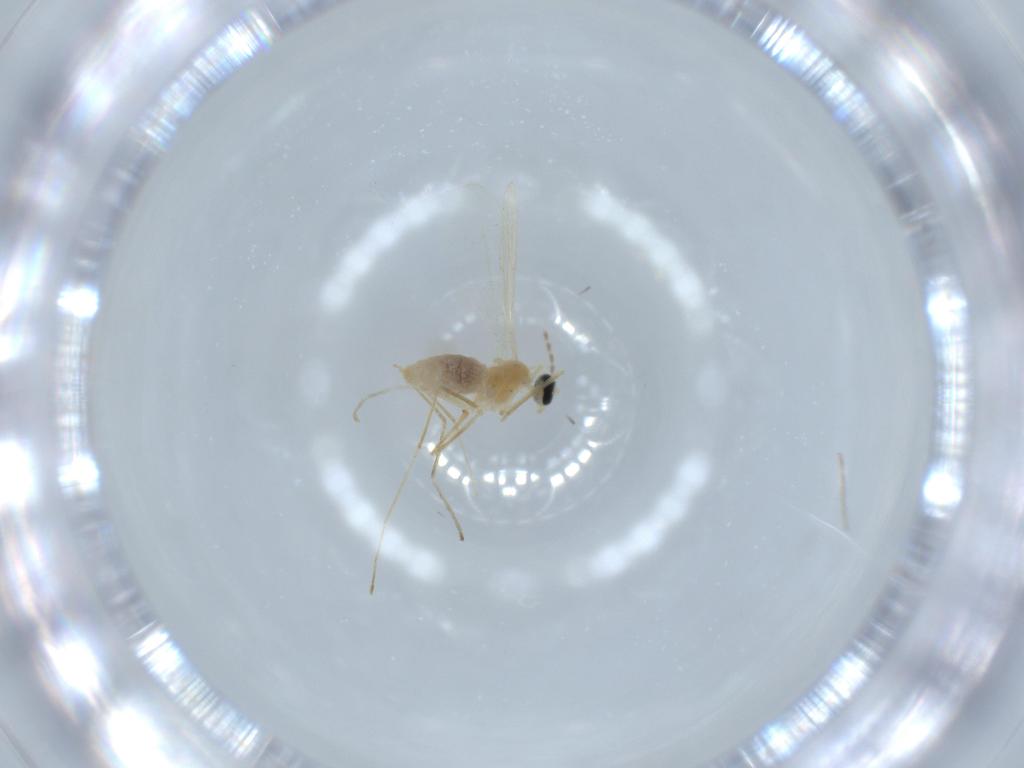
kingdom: Animalia
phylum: Arthropoda
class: Insecta
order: Diptera
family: Cecidomyiidae
